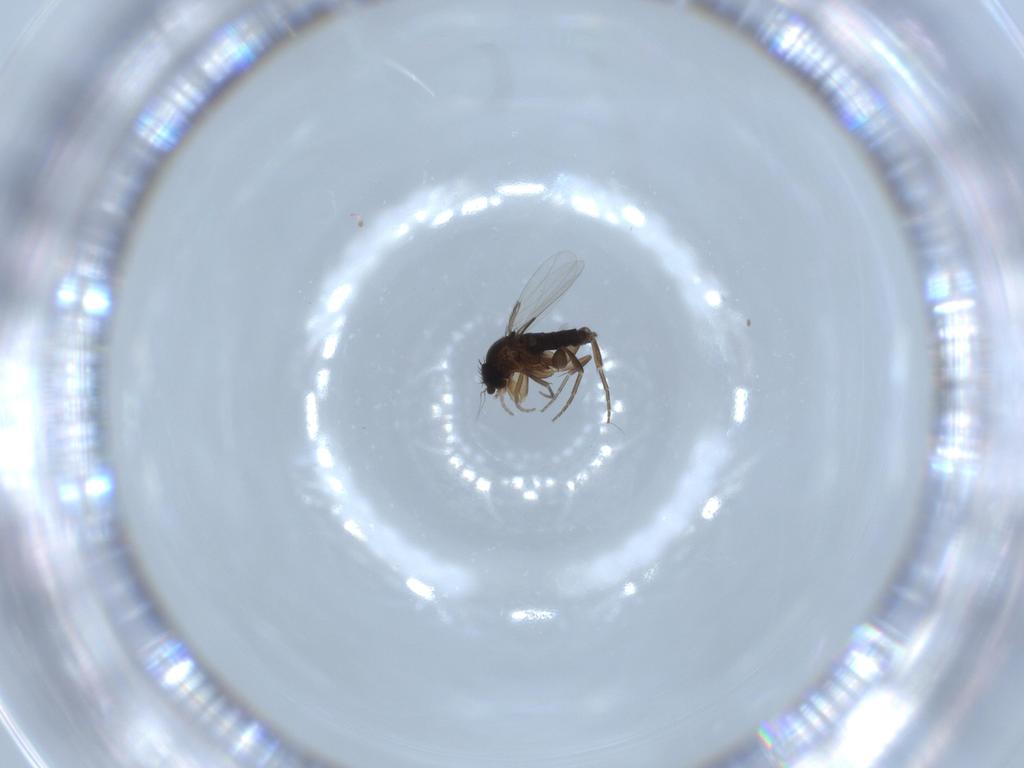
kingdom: Animalia
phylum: Arthropoda
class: Insecta
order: Diptera
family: Phoridae
